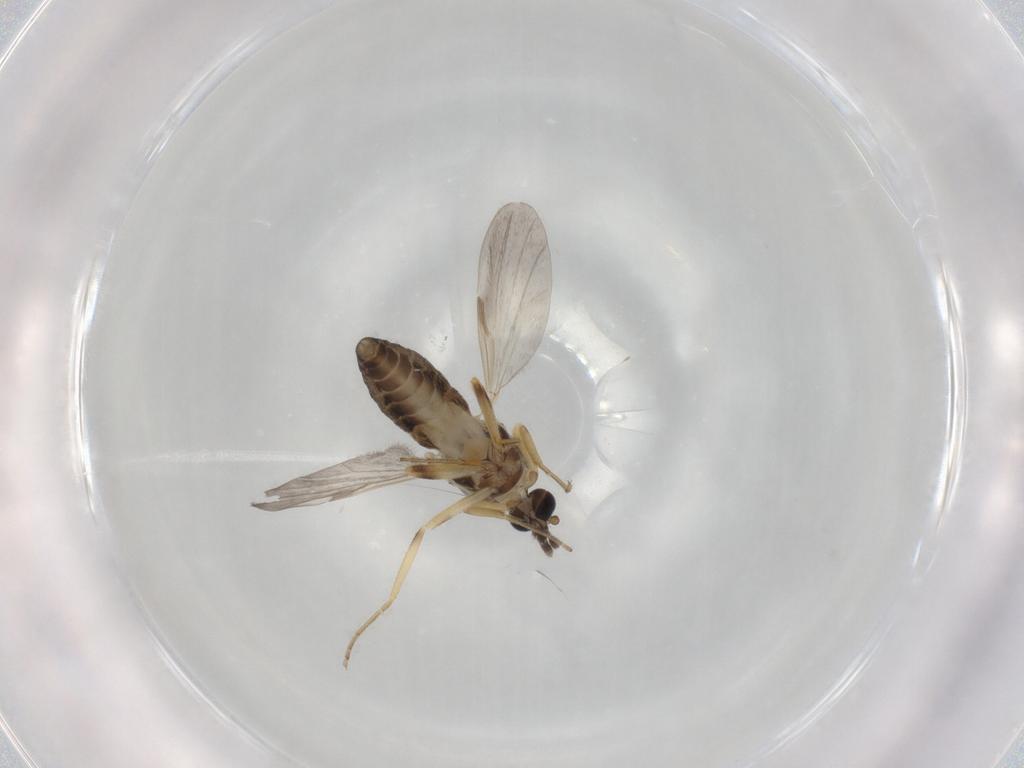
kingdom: Animalia
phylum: Arthropoda
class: Insecta
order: Diptera
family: Ceratopogonidae
